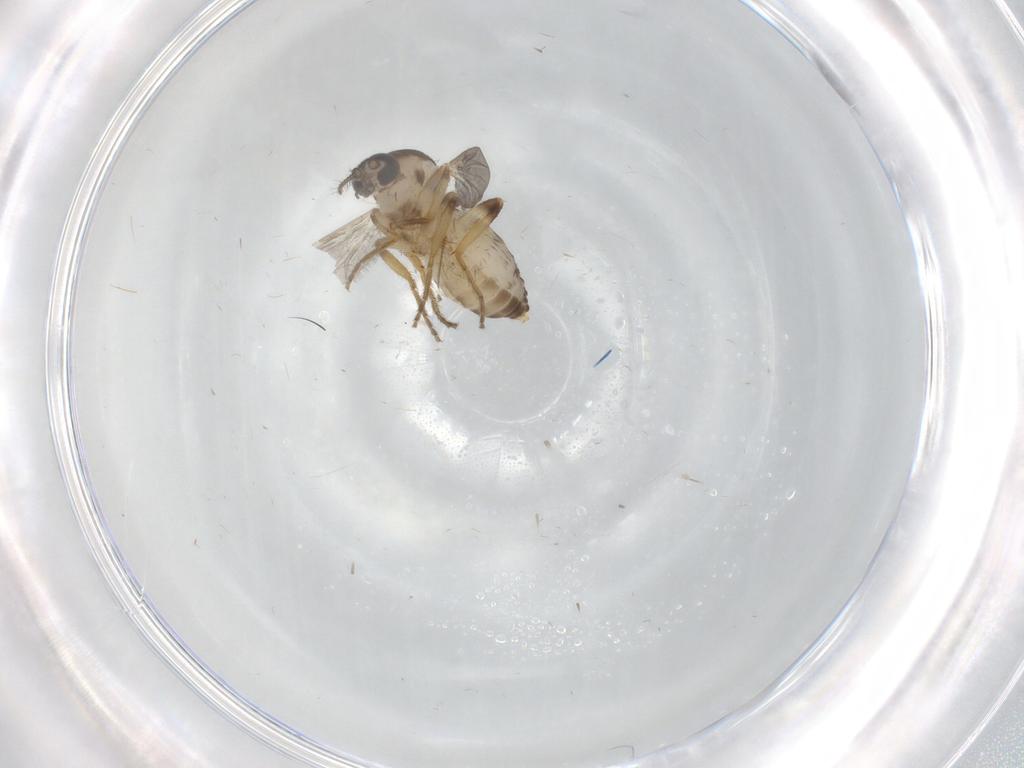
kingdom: Animalia
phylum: Arthropoda
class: Insecta
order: Diptera
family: Ceratopogonidae
